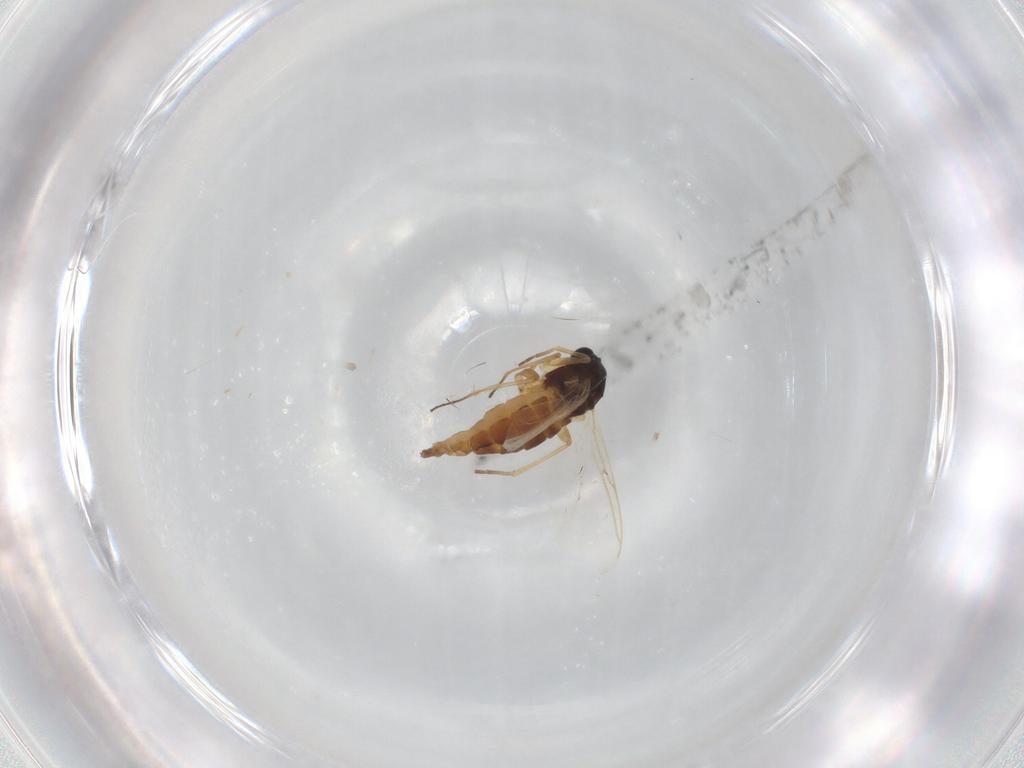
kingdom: Animalia
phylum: Arthropoda
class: Insecta
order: Diptera
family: Sciaridae
